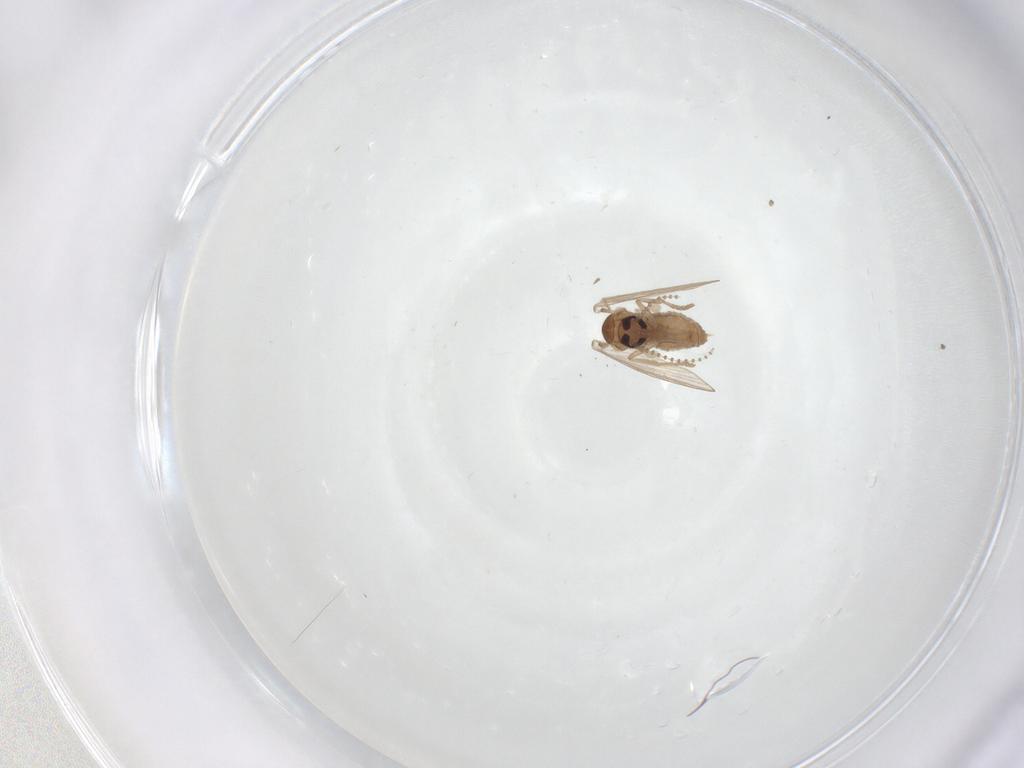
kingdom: Animalia
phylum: Arthropoda
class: Insecta
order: Diptera
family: Psychodidae
